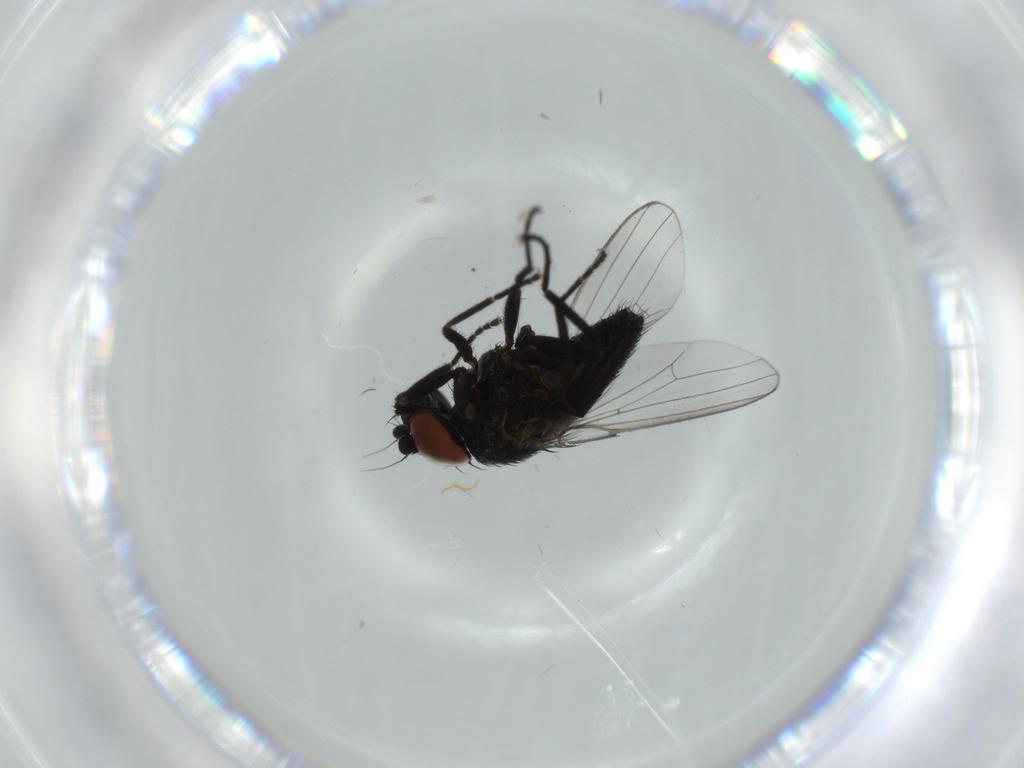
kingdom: Animalia
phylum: Arthropoda
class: Insecta
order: Diptera
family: Milichiidae
